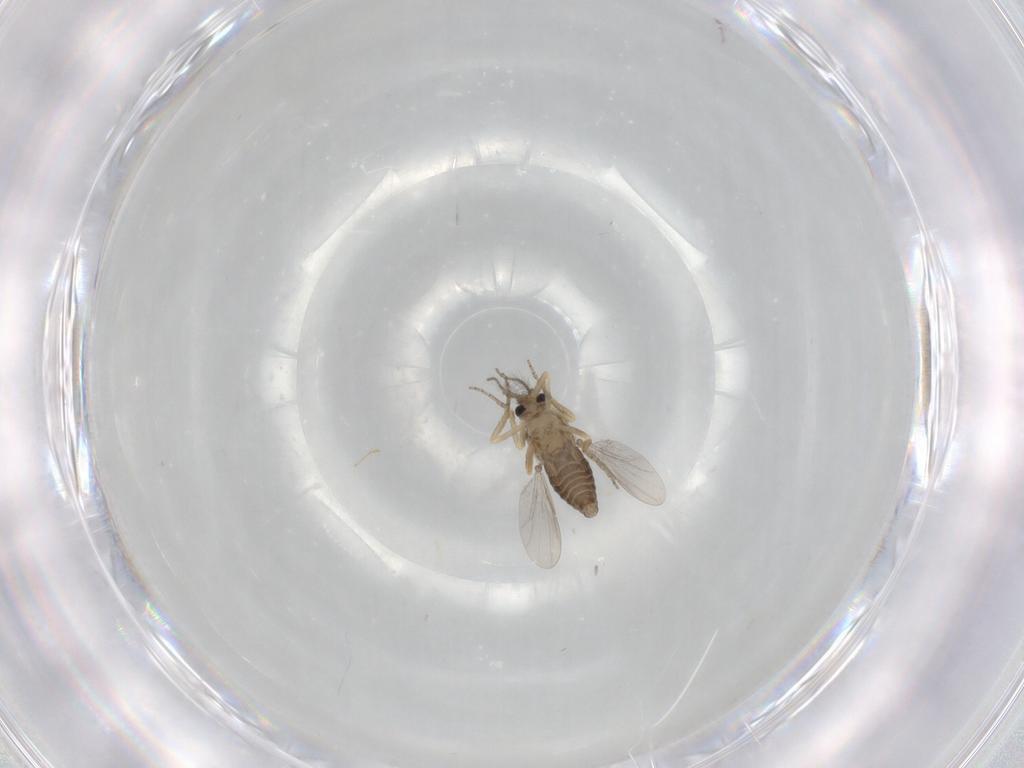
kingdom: Animalia
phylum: Arthropoda
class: Insecta
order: Diptera
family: Ceratopogonidae
